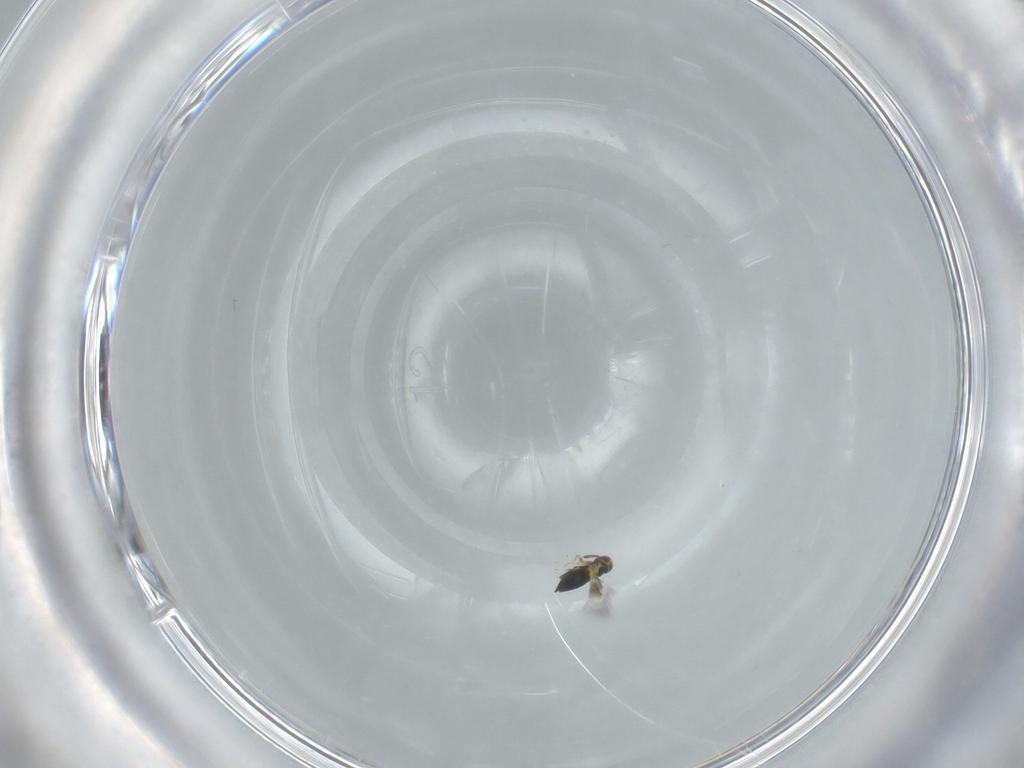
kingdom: Animalia
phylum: Arthropoda
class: Insecta
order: Hymenoptera
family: Signiphoridae
